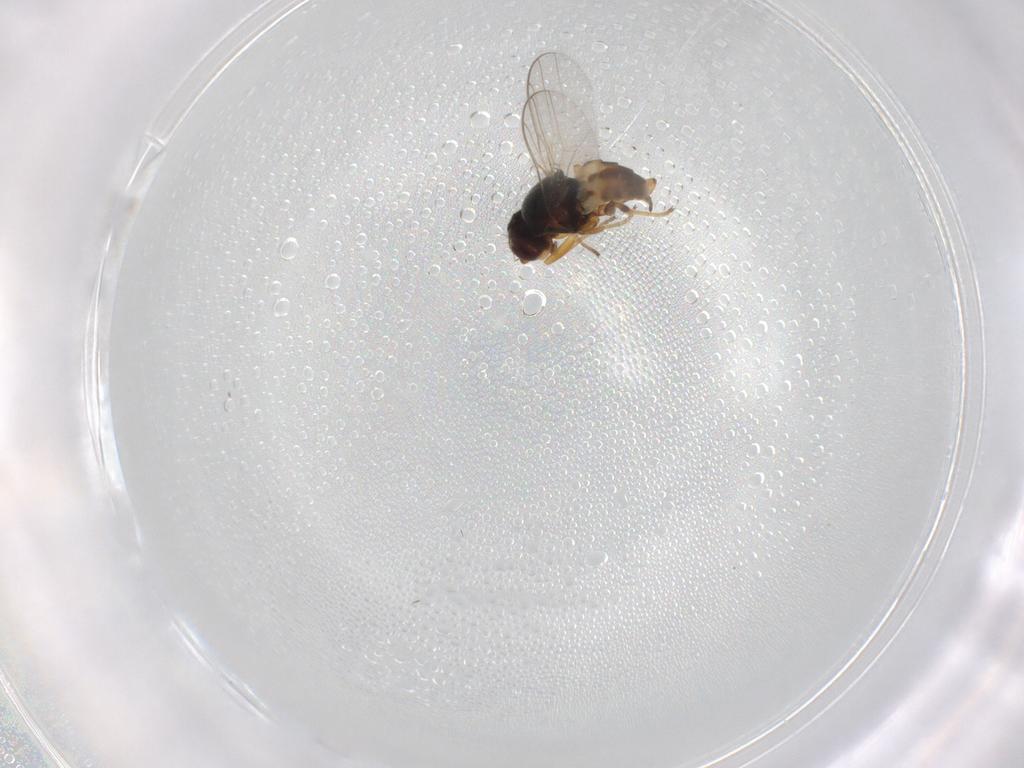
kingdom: Animalia
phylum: Arthropoda
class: Insecta
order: Diptera
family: Chloropidae
